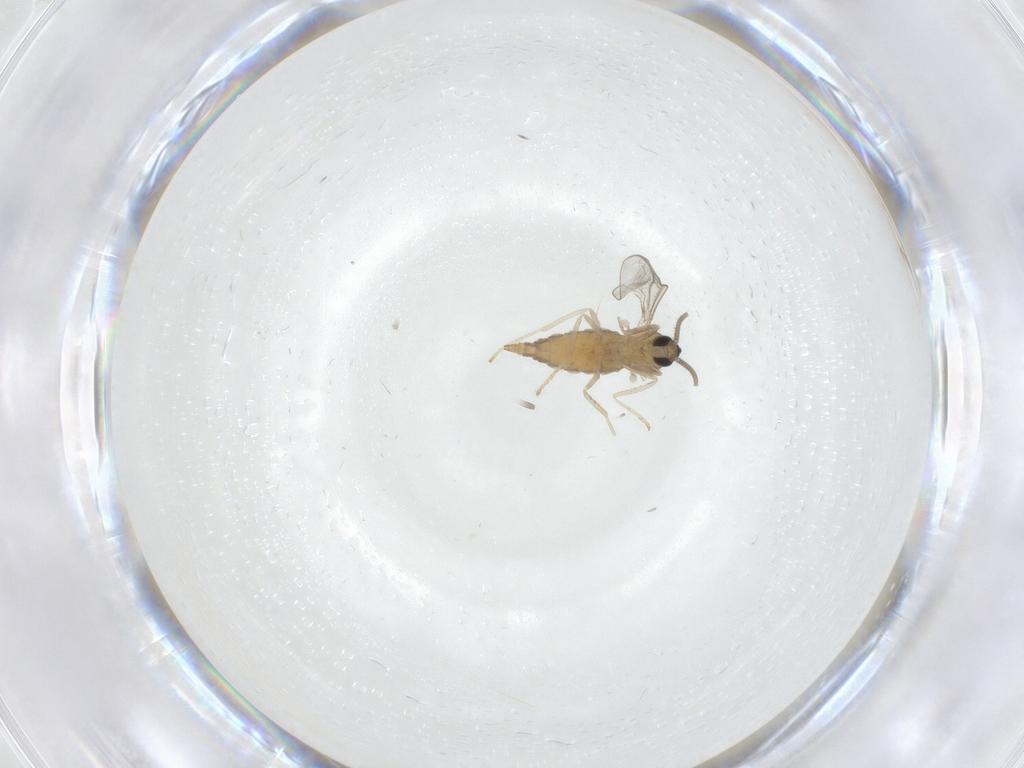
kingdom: Animalia
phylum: Arthropoda
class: Insecta
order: Diptera
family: Cecidomyiidae
